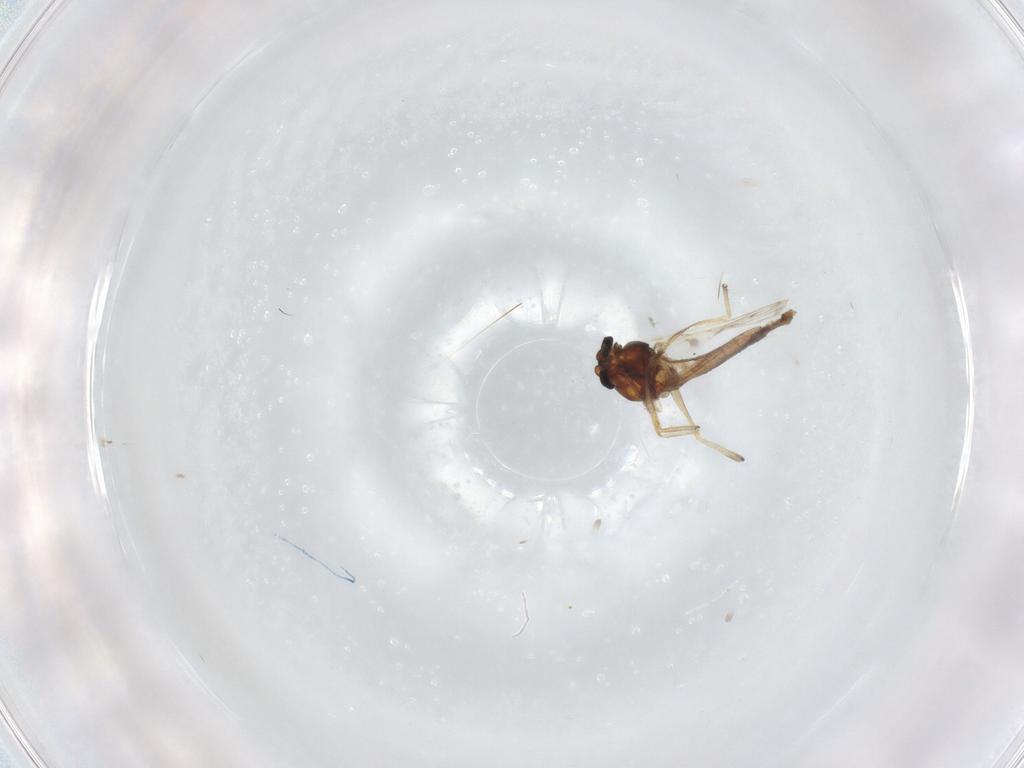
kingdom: Animalia
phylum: Arthropoda
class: Insecta
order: Diptera
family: Chironomidae
